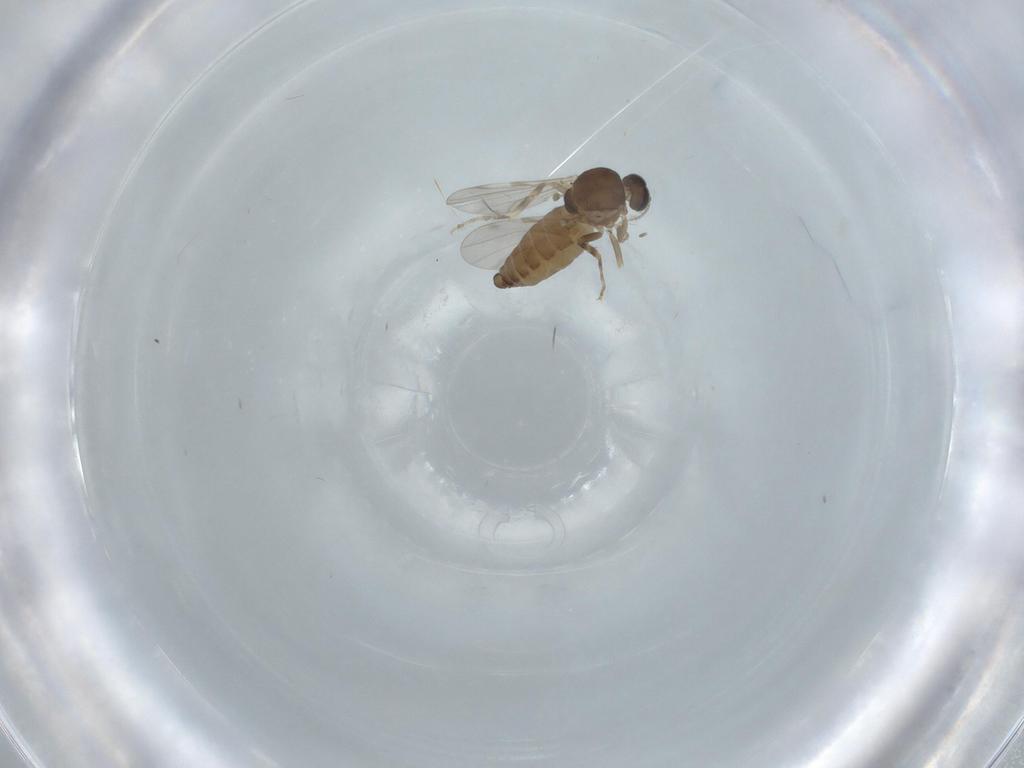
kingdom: Animalia
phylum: Arthropoda
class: Insecta
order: Diptera
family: Ceratopogonidae
